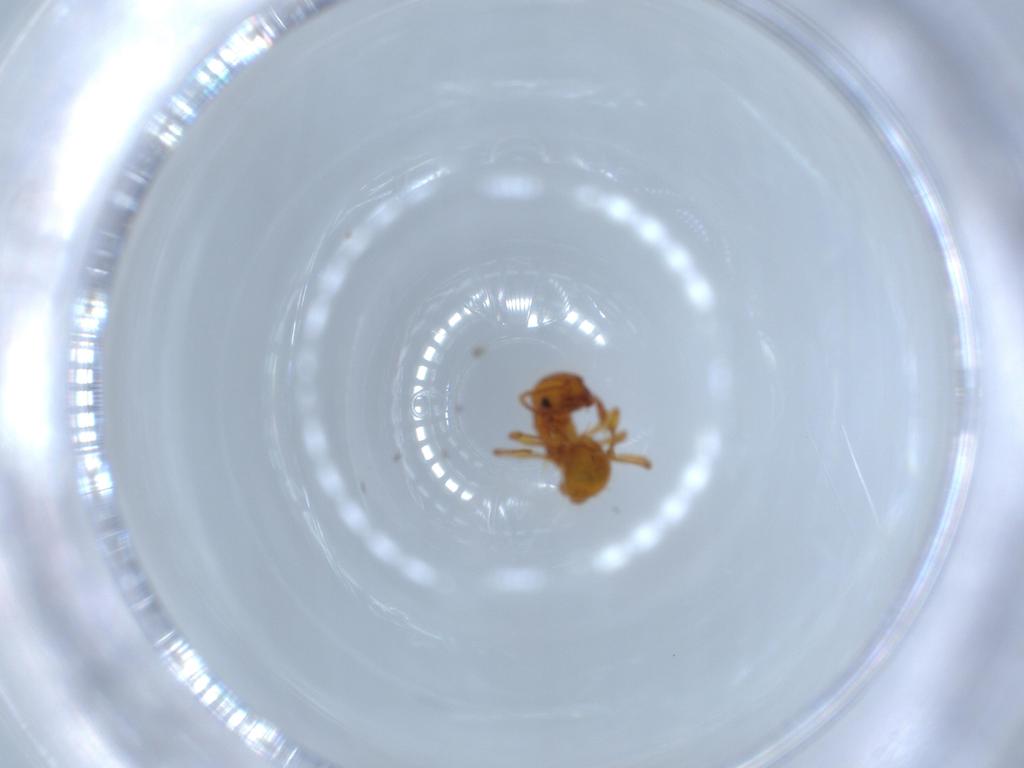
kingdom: Animalia
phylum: Arthropoda
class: Insecta
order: Hymenoptera
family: Formicidae
